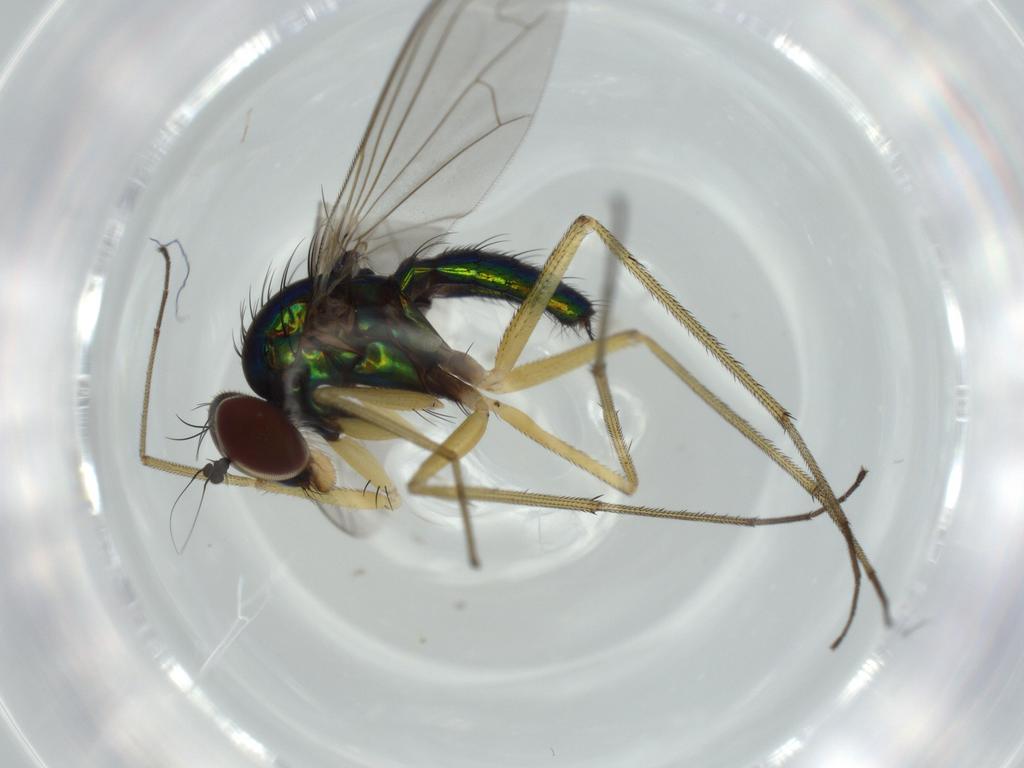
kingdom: Animalia
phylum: Arthropoda
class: Insecta
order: Diptera
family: Dolichopodidae
